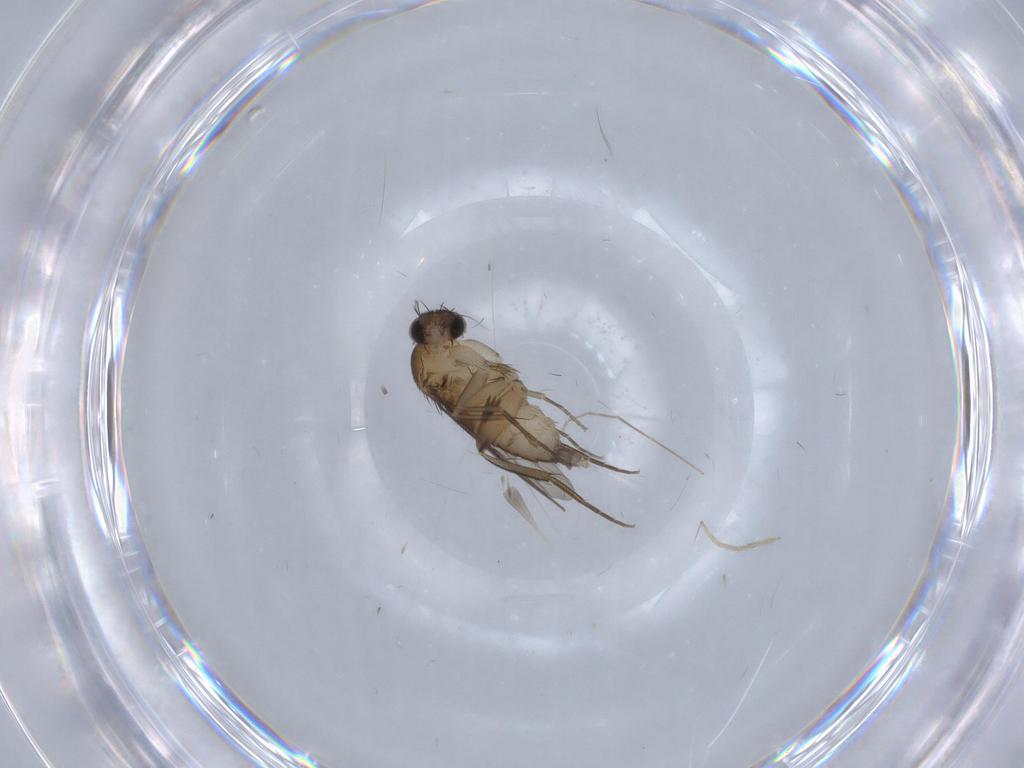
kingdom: Animalia
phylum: Arthropoda
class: Insecta
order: Diptera
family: Phoridae
